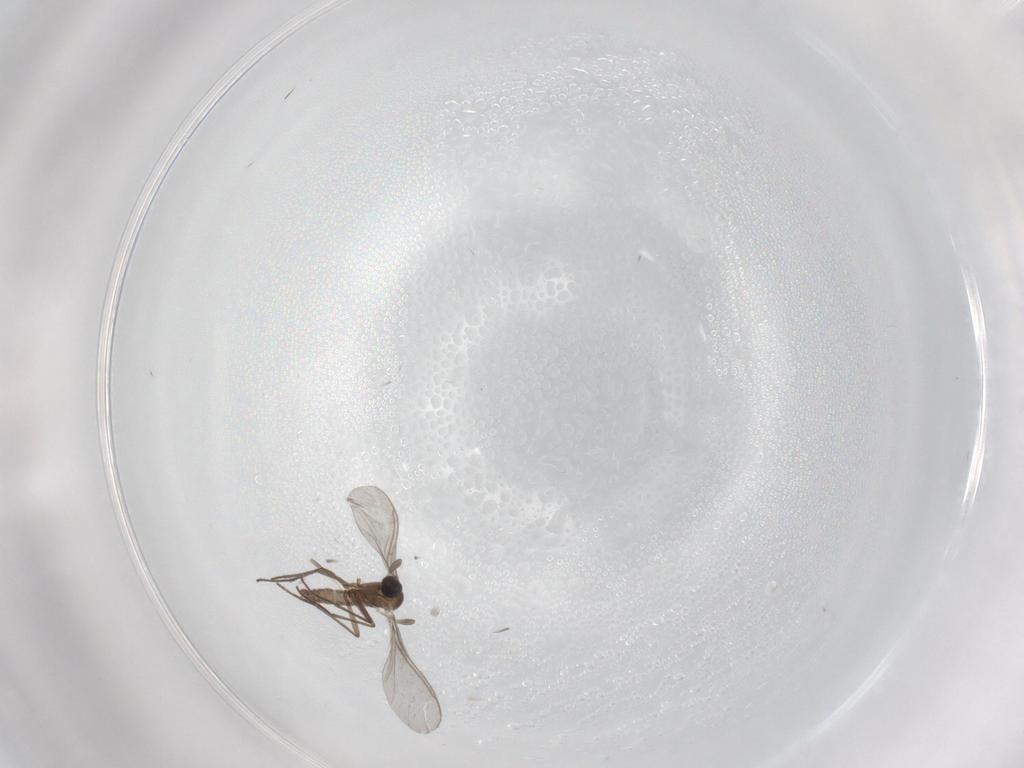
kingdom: Animalia
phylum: Arthropoda
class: Insecta
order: Diptera
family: Sciaridae
